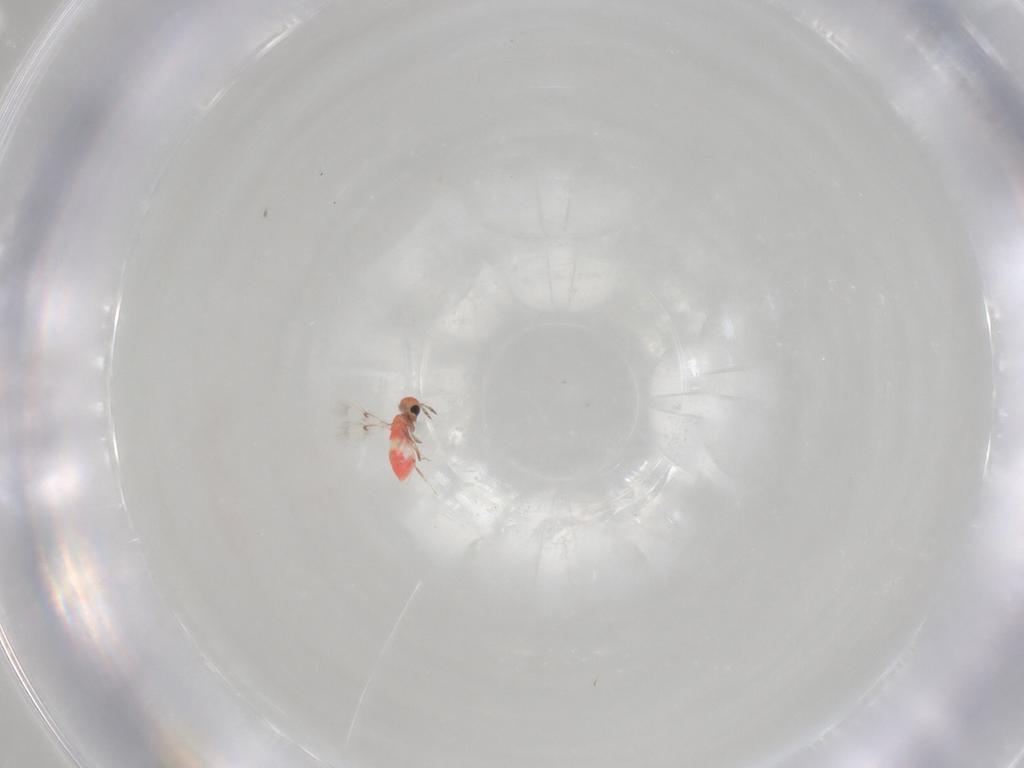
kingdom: Animalia
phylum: Arthropoda
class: Insecta
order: Hymenoptera
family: Trichogrammatidae
